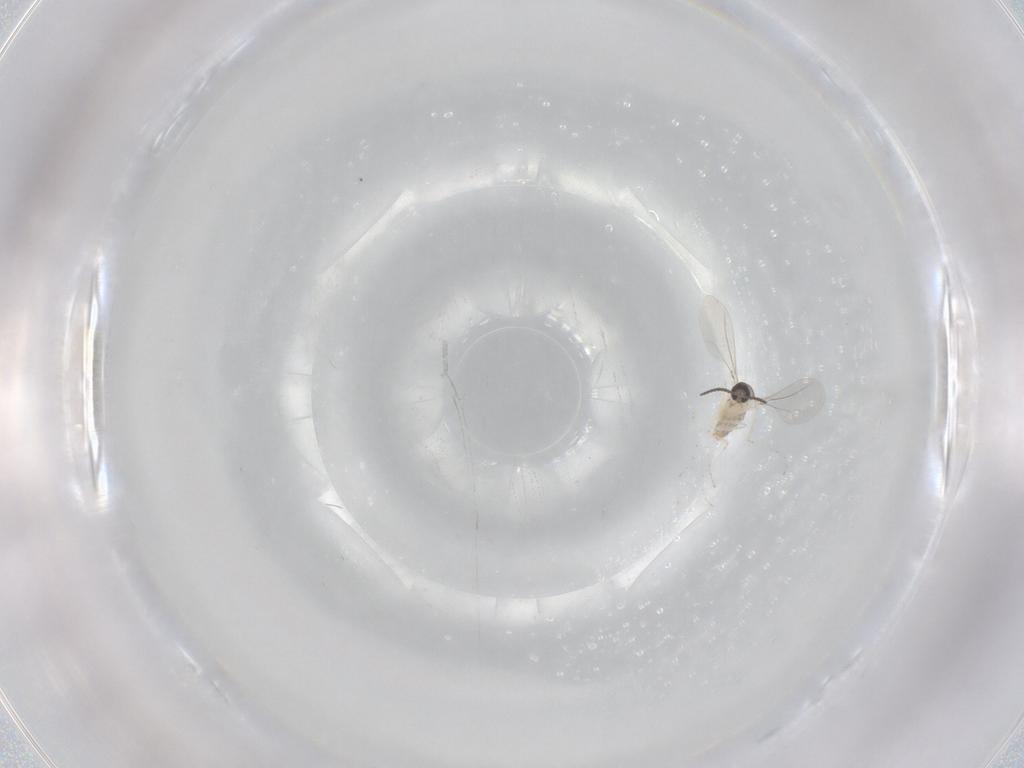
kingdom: Animalia
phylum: Arthropoda
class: Insecta
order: Diptera
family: Cecidomyiidae
